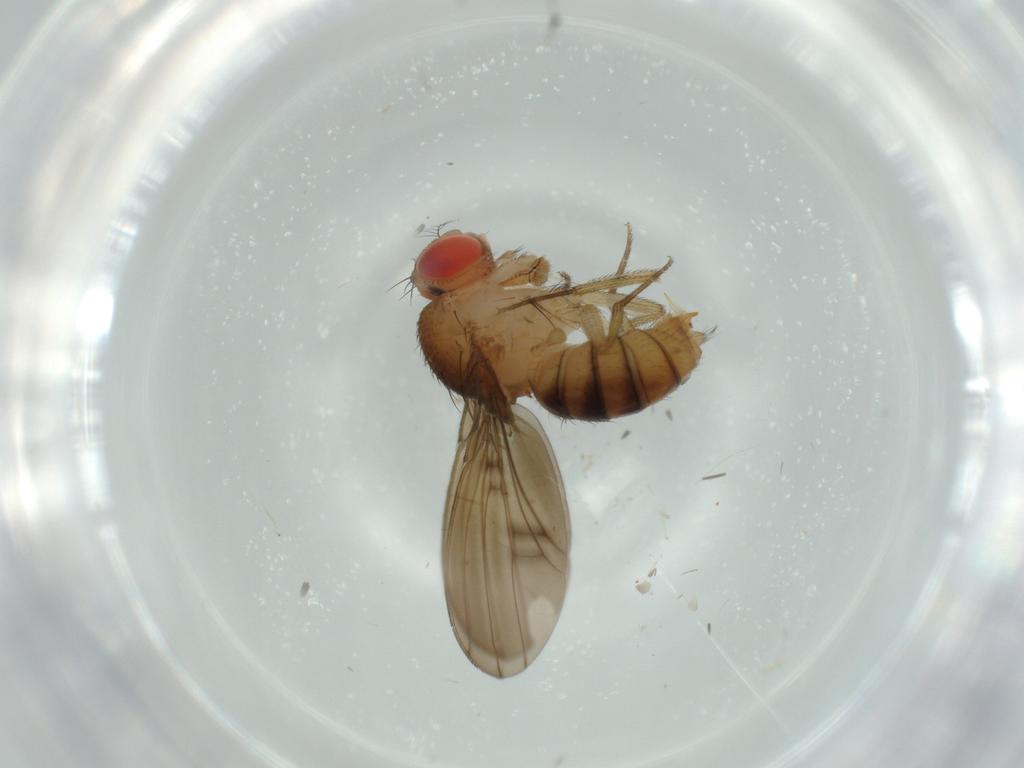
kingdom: Animalia
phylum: Arthropoda
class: Insecta
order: Diptera
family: Drosophilidae
